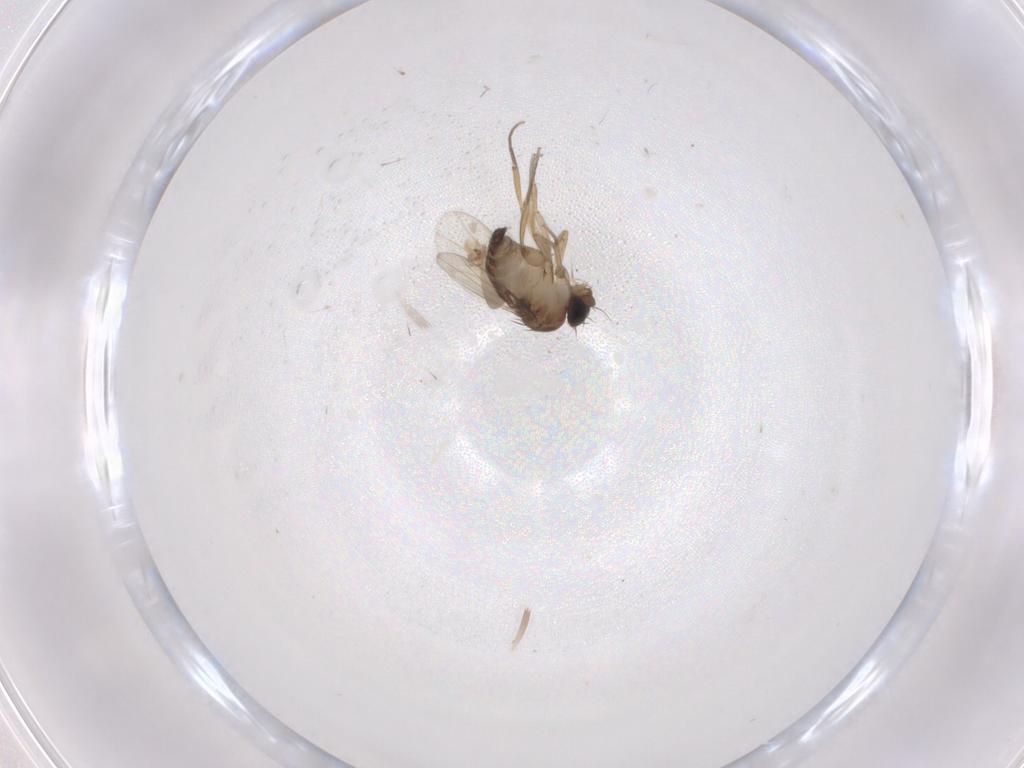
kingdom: Animalia
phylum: Arthropoda
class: Insecta
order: Diptera
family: Phoridae
